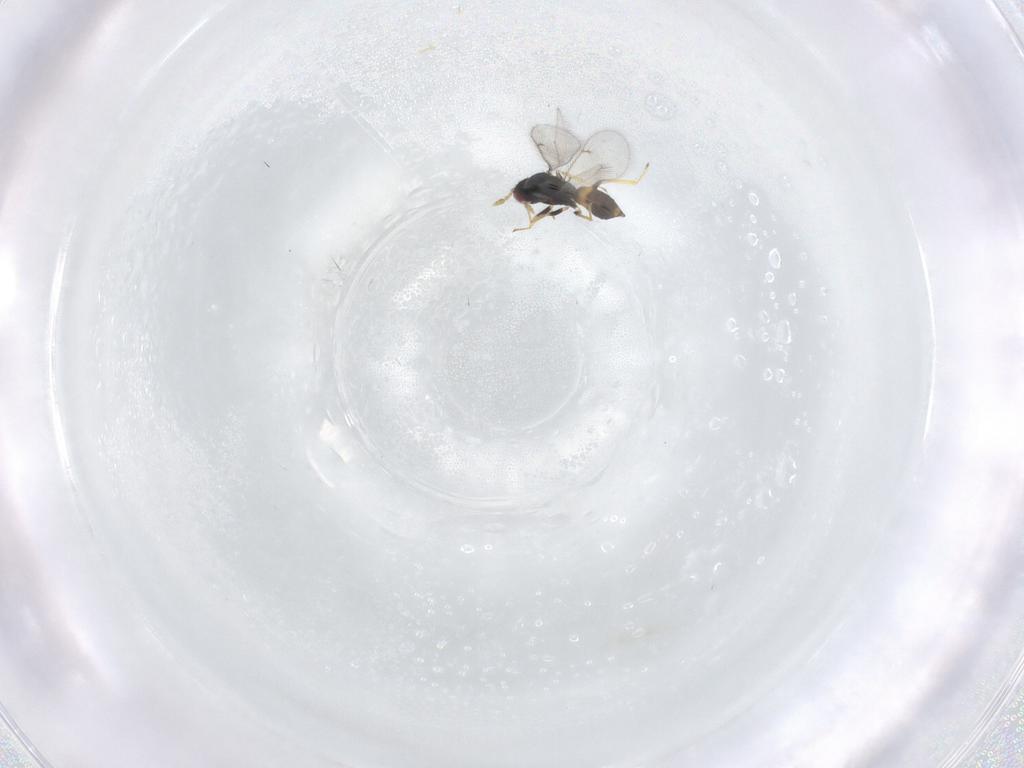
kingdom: Animalia
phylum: Arthropoda
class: Insecta
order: Hymenoptera
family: Eulophidae
